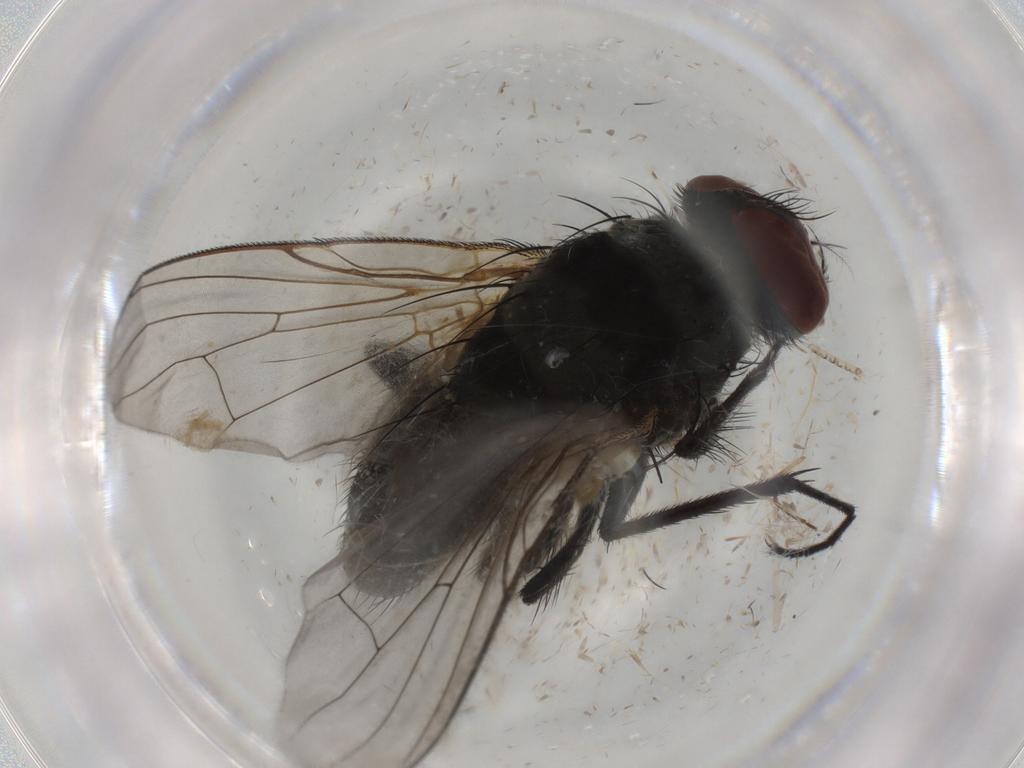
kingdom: Animalia
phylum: Arthropoda
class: Insecta
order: Diptera
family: Muscidae
